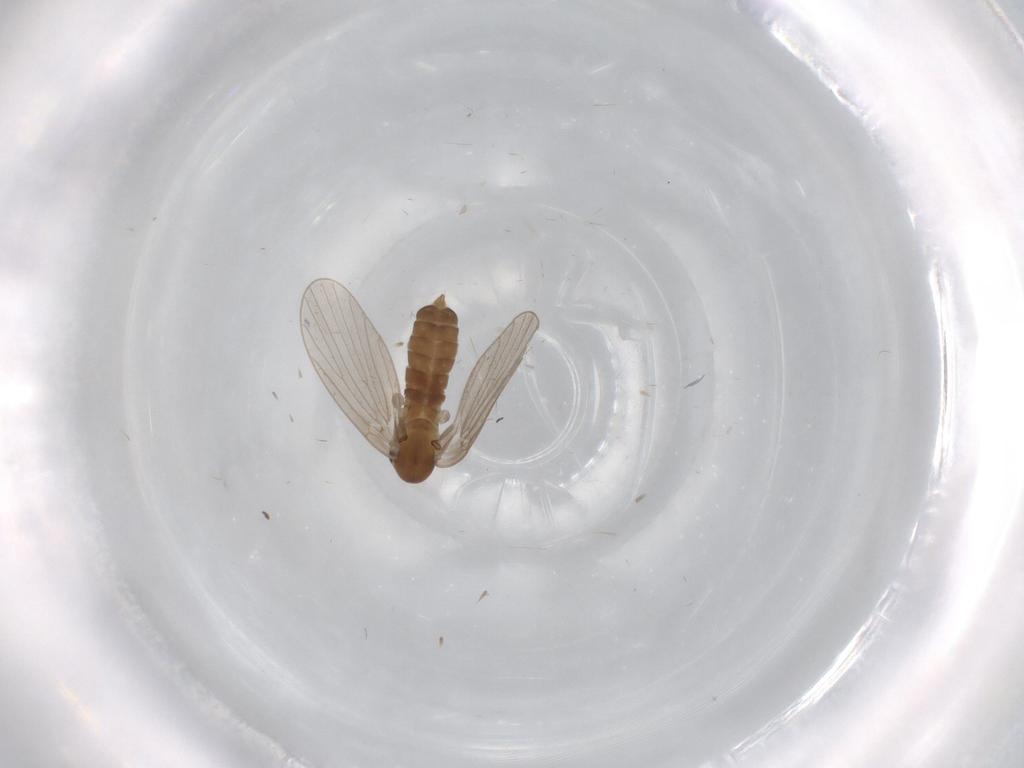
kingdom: Animalia
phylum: Arthropoda
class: Insecta
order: Diptera
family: Psychodidae
